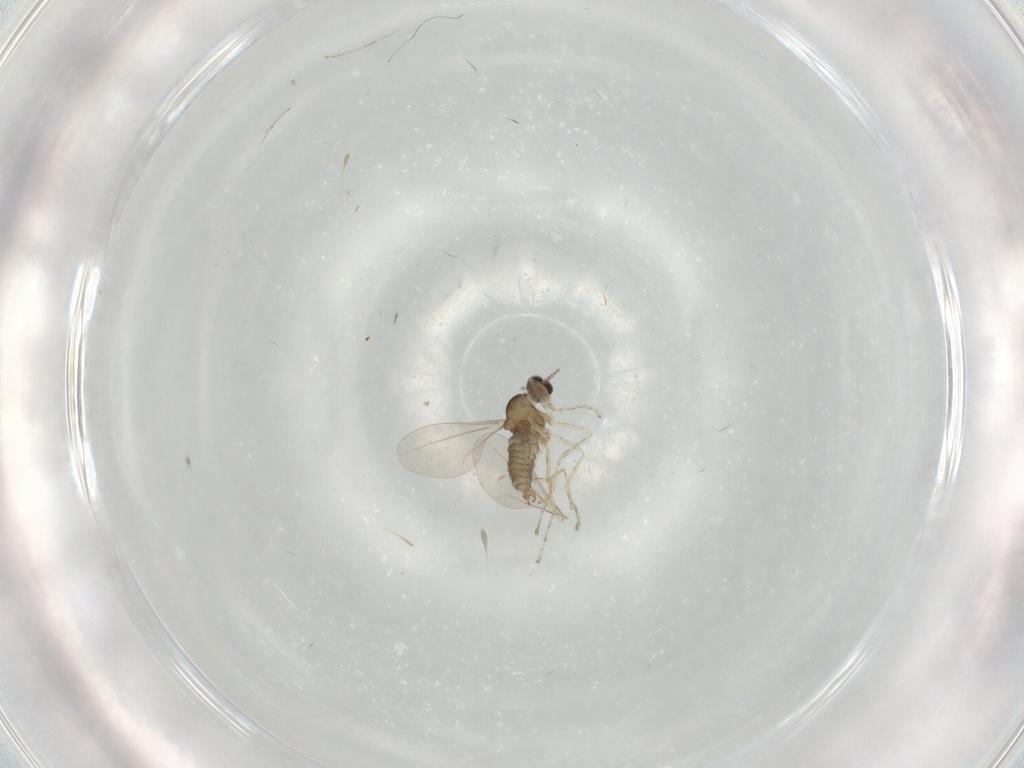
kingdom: Animalia
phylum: Arthropoda
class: Insecta
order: Diptera
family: Cecidomyiidae
